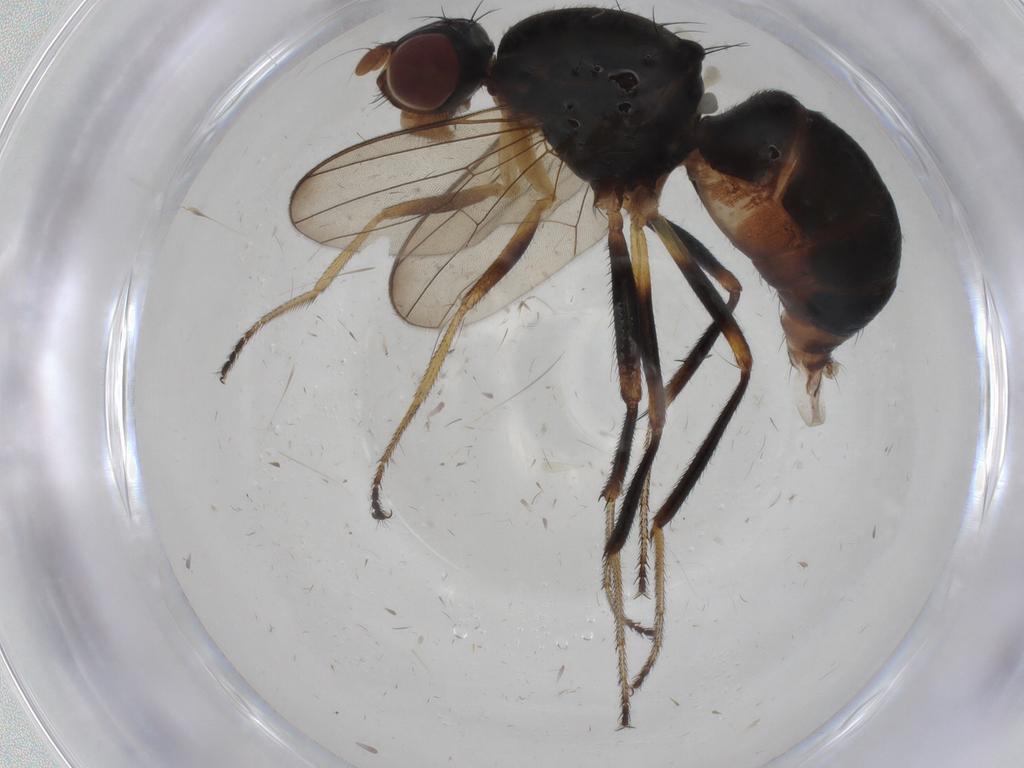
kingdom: Animalia
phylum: Arthropoda
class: Insecta
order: Diptera
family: Sepsidae
